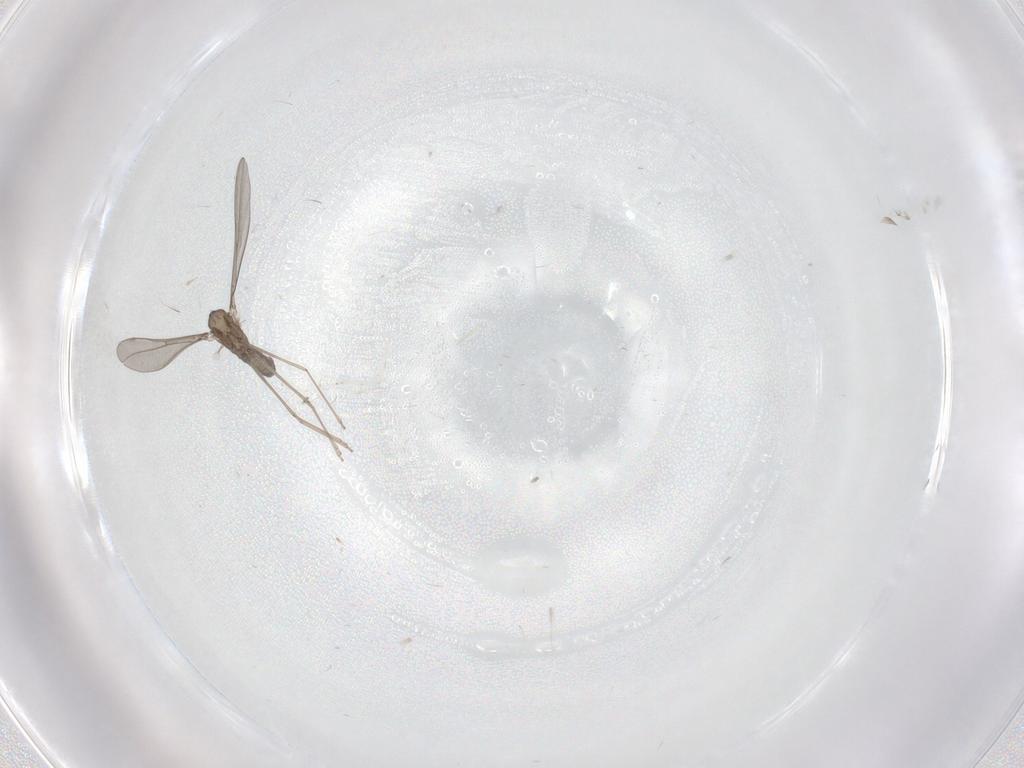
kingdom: Animalia
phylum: Arthropoda
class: Insecta
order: Diptera
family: Cecidomyiidae
